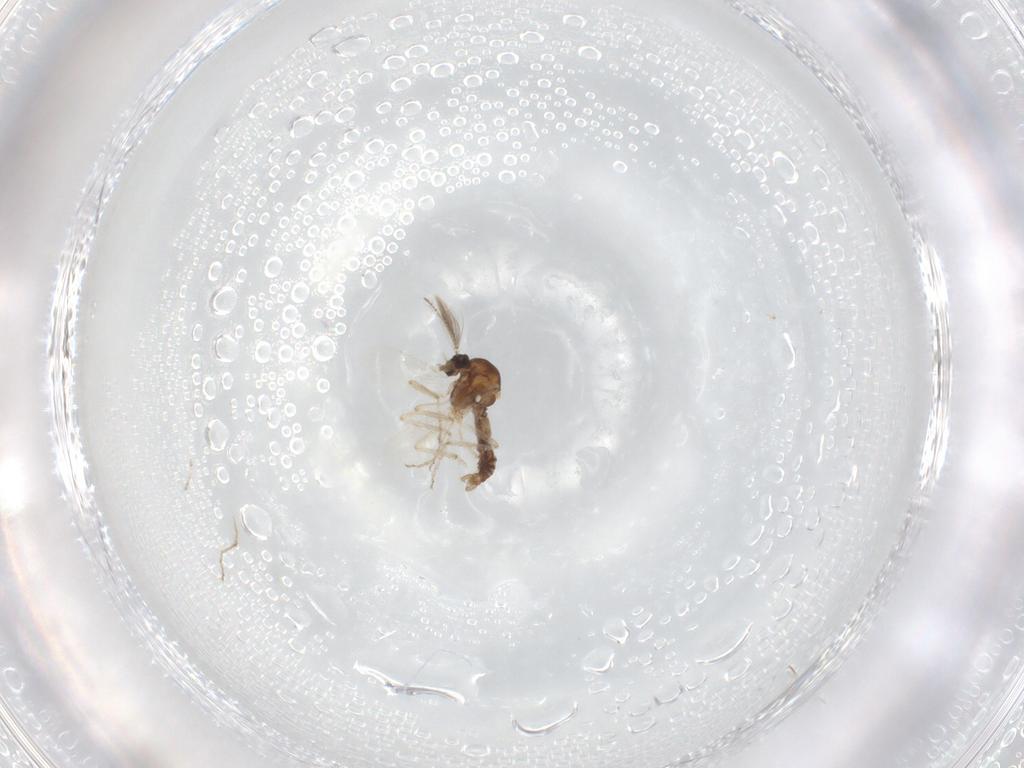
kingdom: Animalia
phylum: Arthropoda
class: Insecta
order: Diptera
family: Ceratopogonidae
